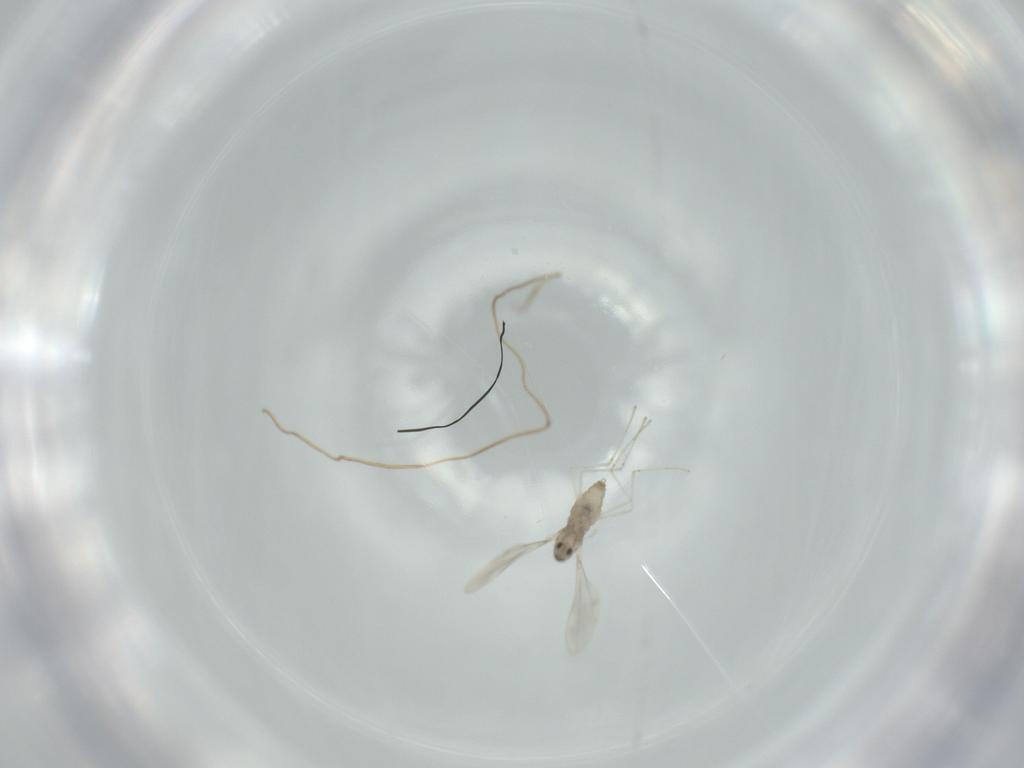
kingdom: Animalia
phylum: Arthropoda
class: Insecta
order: Diptera
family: Cecidomyiidae
